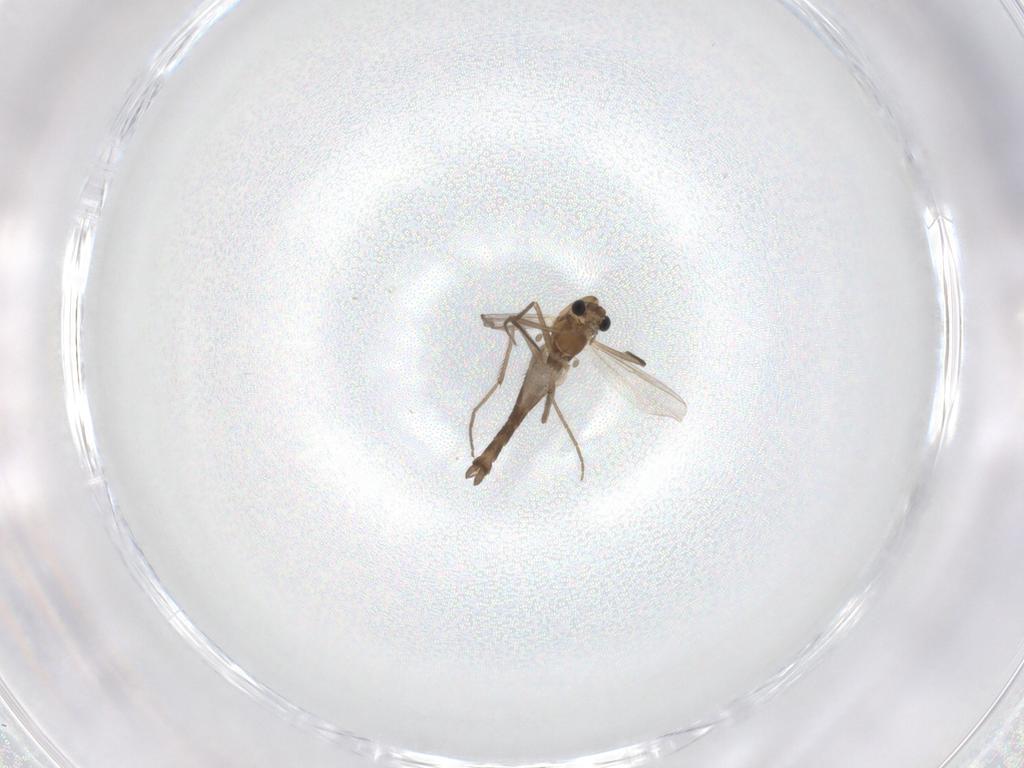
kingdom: Animalia
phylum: Arthropoda
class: Insecta
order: Diptera
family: Chironomidae
